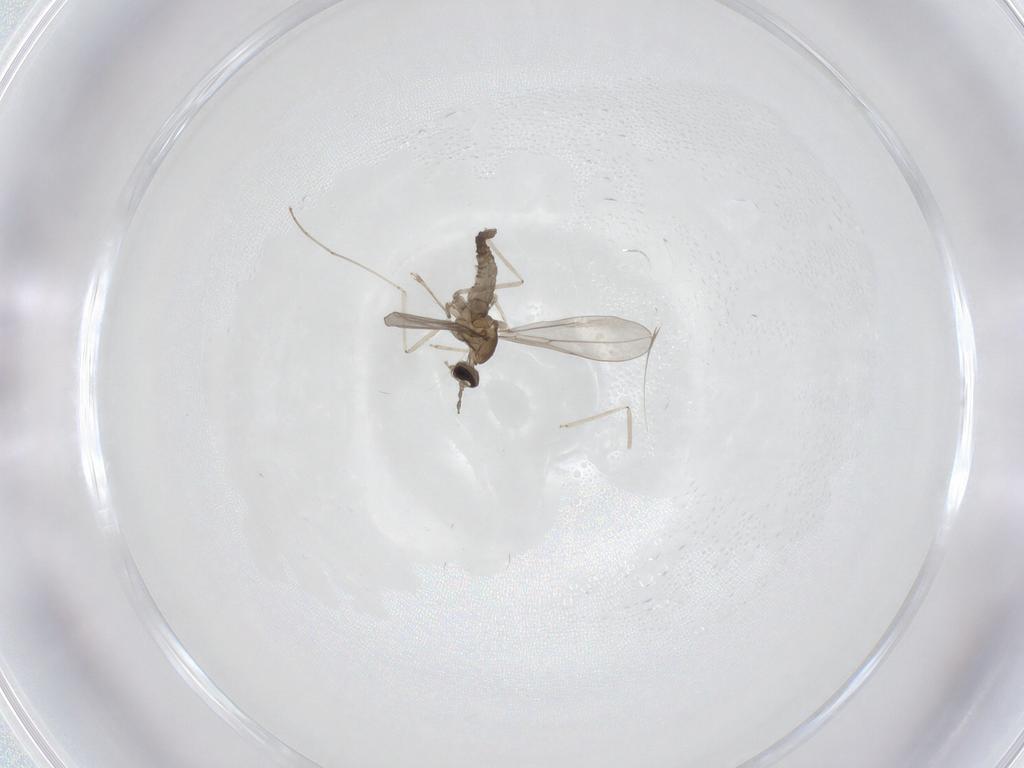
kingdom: Animalia
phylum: Arthropoda
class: Insecta
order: Diptera
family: Cecidomyiidae
